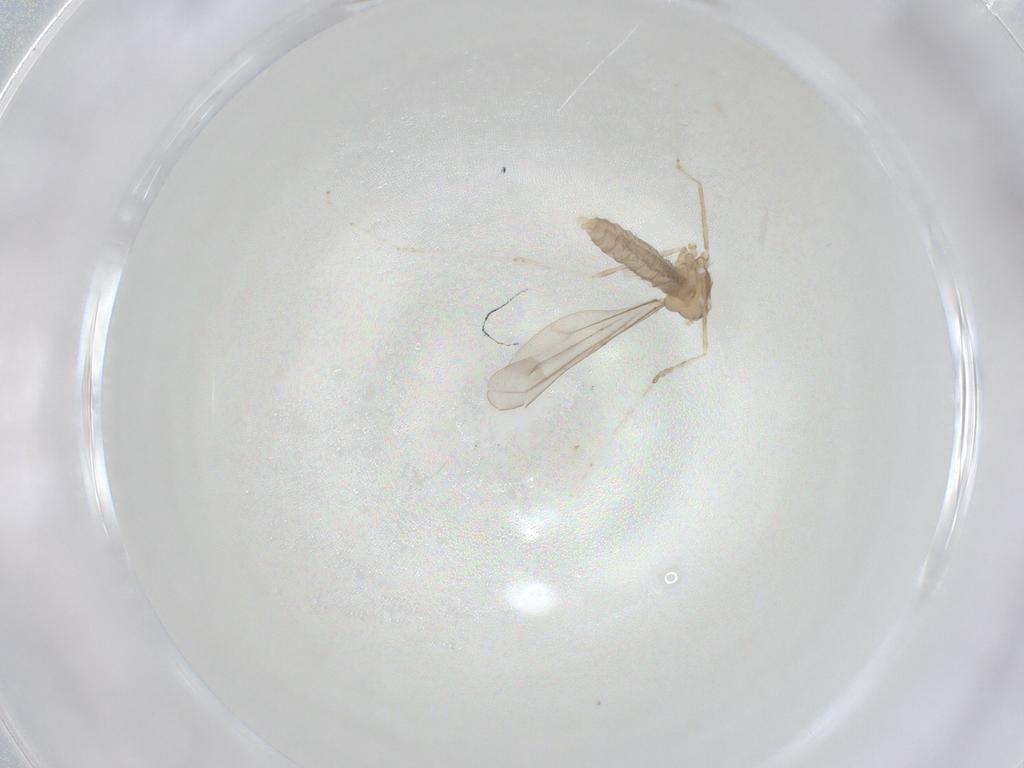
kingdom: Animalia
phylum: Arthropoda
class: Insecta
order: Diptera
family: Cecidomyiidae
